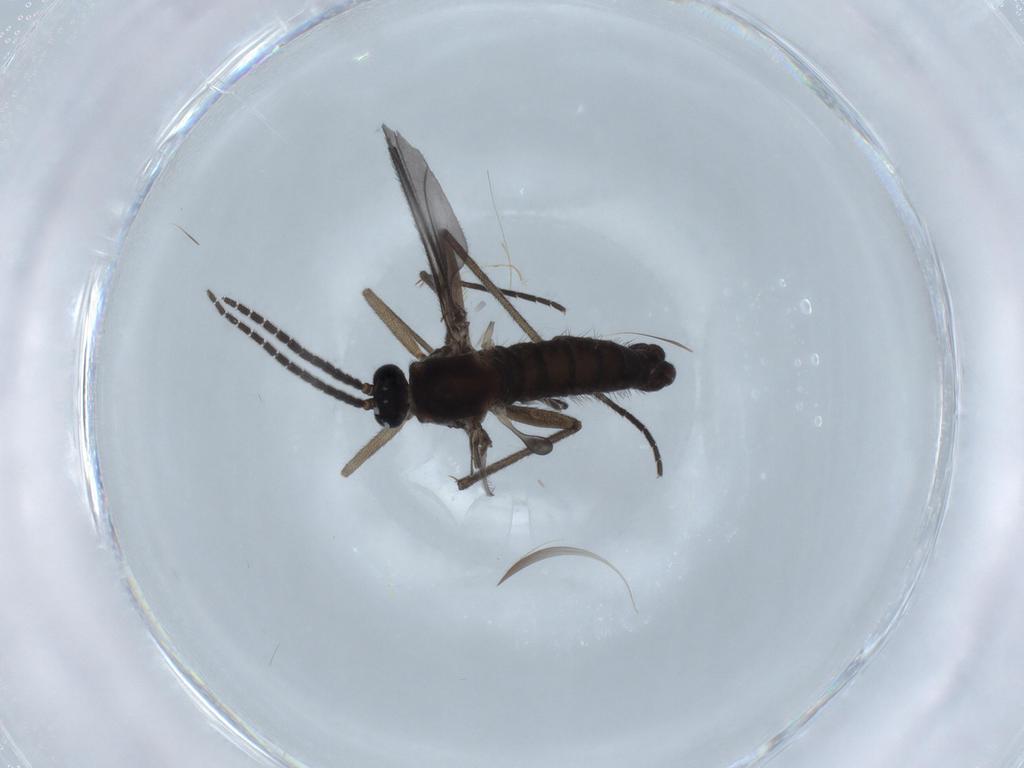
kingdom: Animalia
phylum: Arthropoda
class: Insecta
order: Diptera
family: Sciaridae
